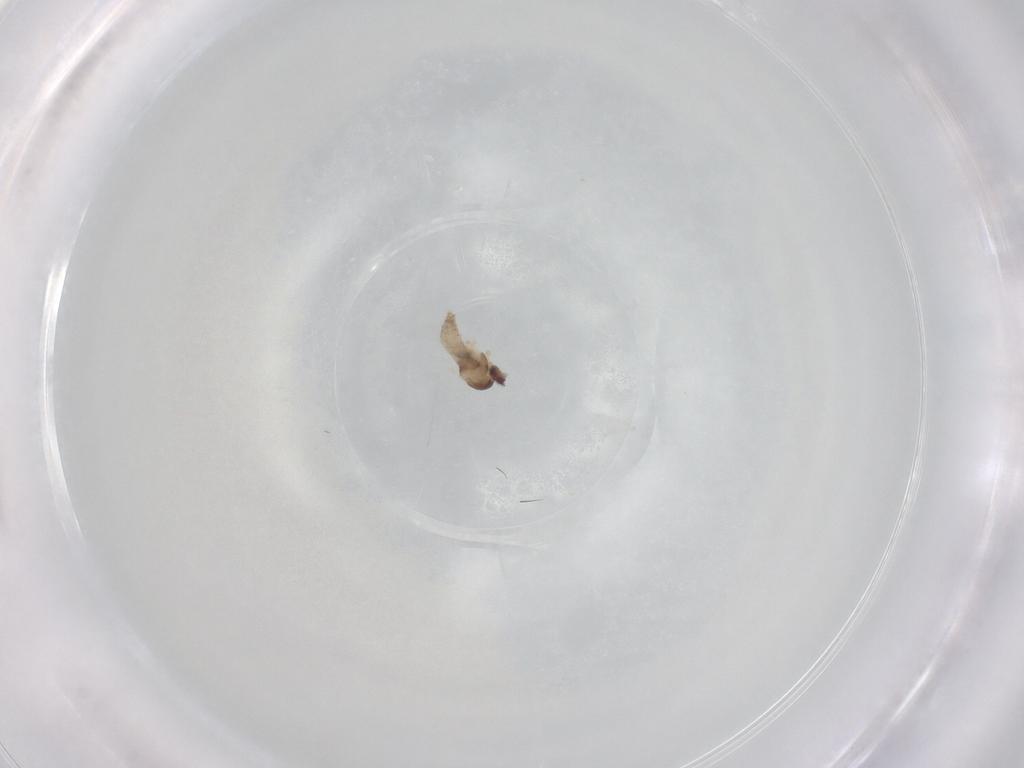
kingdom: Animalia
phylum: Arthropoda
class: Insecta
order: Diptera
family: Cecidomyiidae
